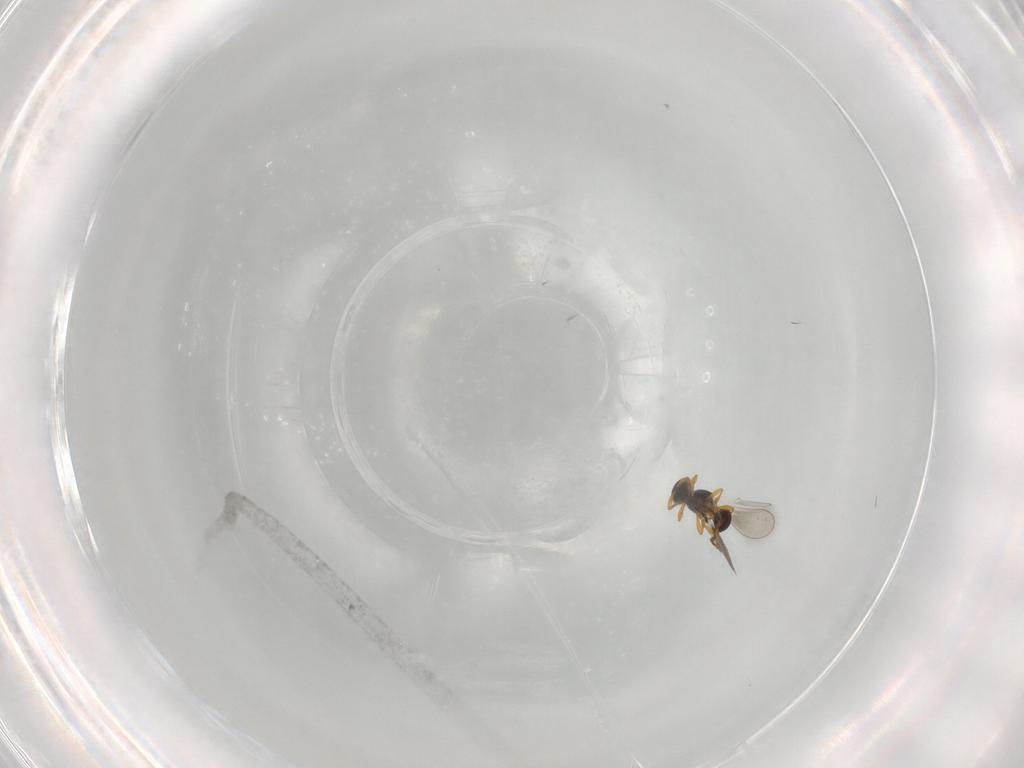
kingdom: Animalia
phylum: Arthropoda
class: Insecta
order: Hymenoptera
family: Platygastridae
